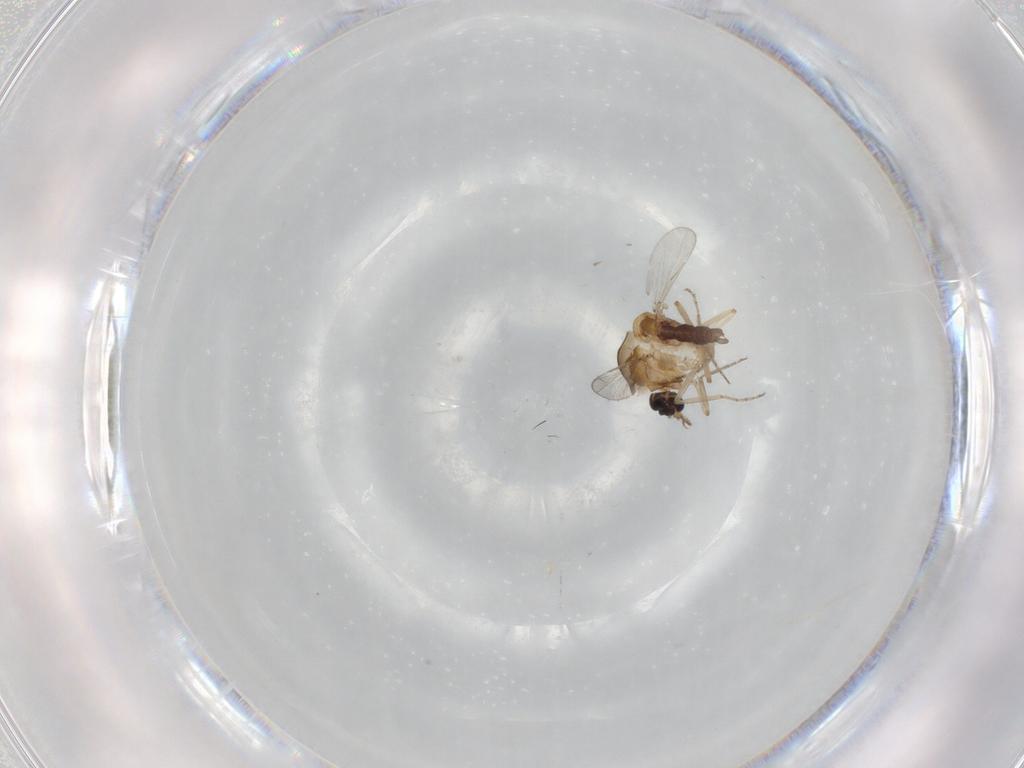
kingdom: Animalia
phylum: Arthropoda
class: Insecta
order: Diptera
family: Ceratopogonidae
